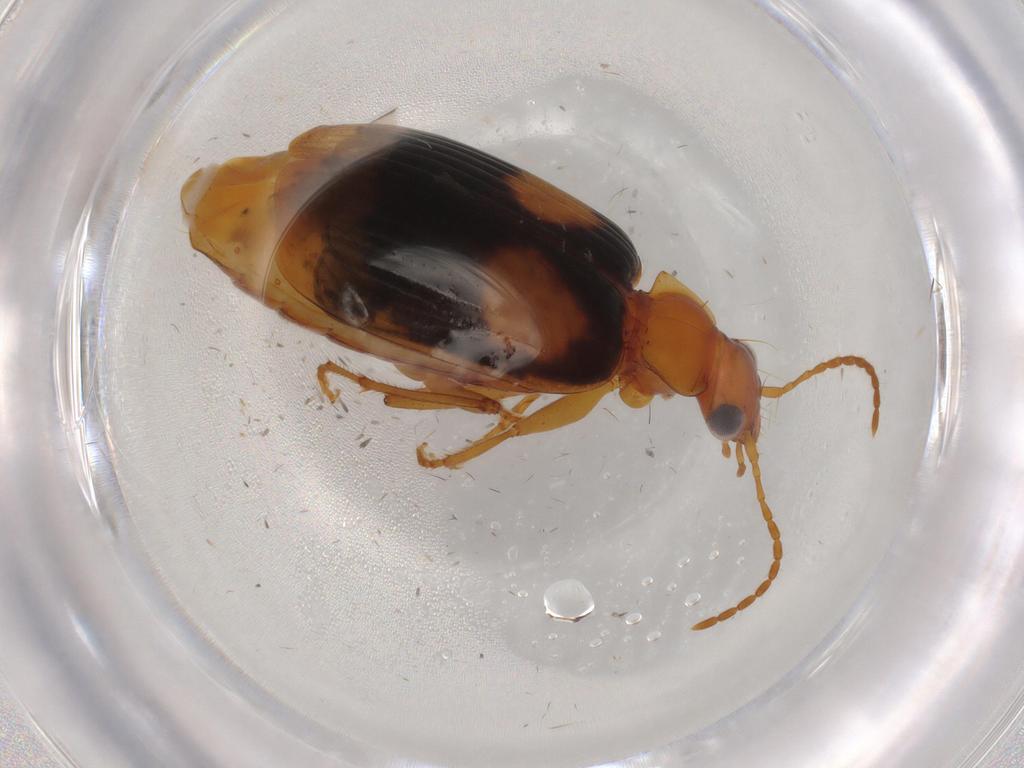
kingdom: Animalia
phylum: Arthropoda
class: Insecta
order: Coleoptera
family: Carabidae
